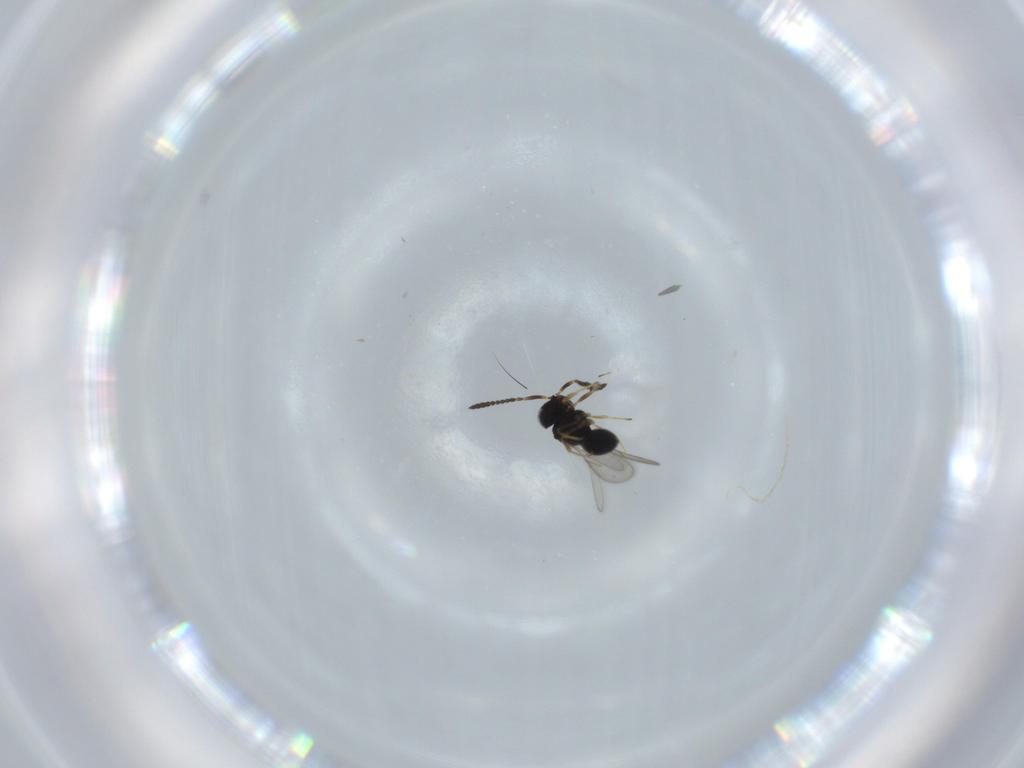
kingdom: Animalia
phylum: Arthropoda
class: Insecta
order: Hymenoptera
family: Scelionidae
